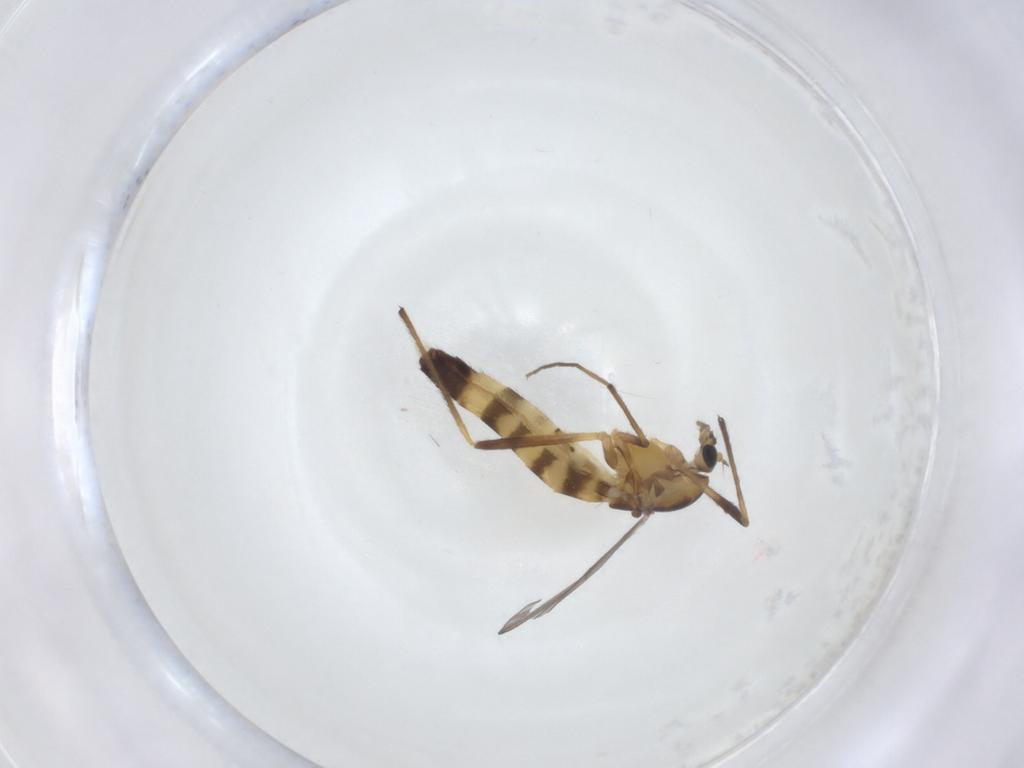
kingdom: Animalia
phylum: Arthropoda
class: Insecta
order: Diptera
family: Chironomidae
